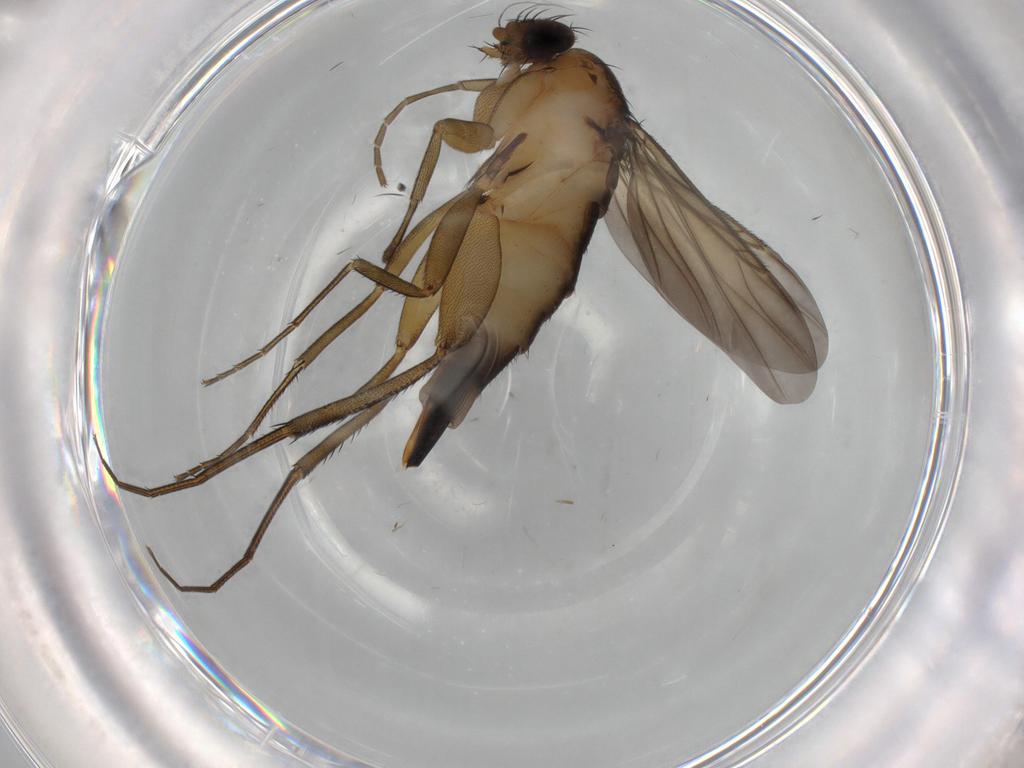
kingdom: Animalia
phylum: Arthropoda
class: Insecta
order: Diptera
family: Phoridae
